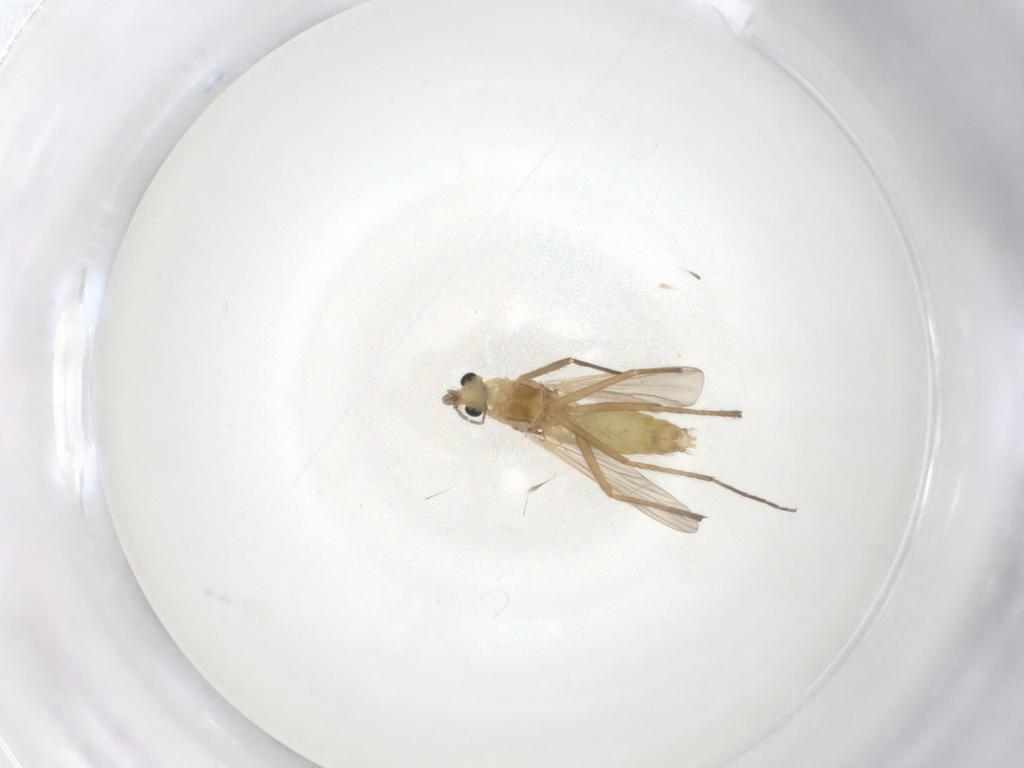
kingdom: Animalia
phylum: Arthropoda
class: Insecta
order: Diptera
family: Chironomidae
